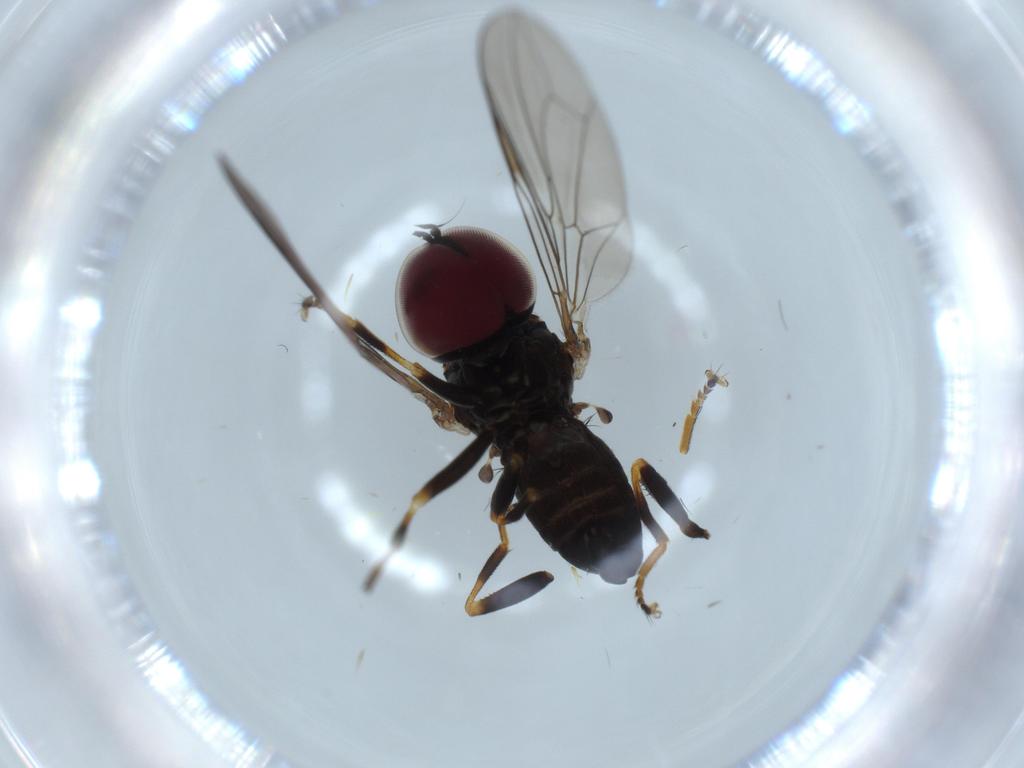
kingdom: Animalia
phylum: Arthropoda
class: Insecta
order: Diptera
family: Pipunculidae
